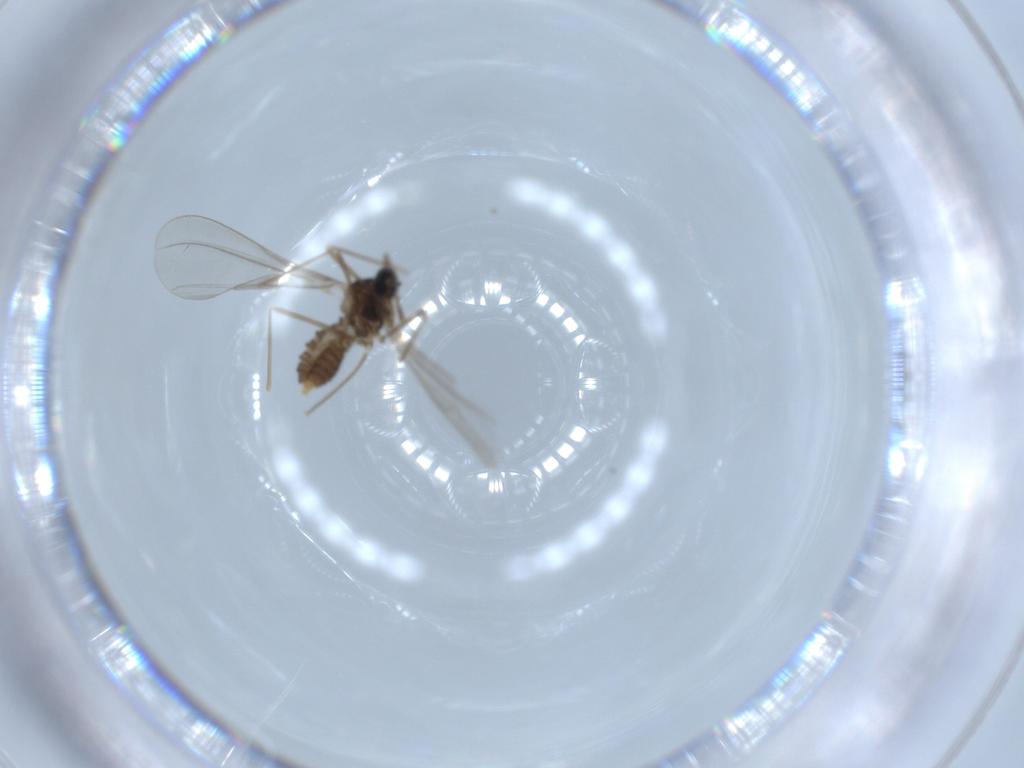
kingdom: Animalia
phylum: Arthropoda
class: Insecta
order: Diptera
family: Cecidomyiidae
